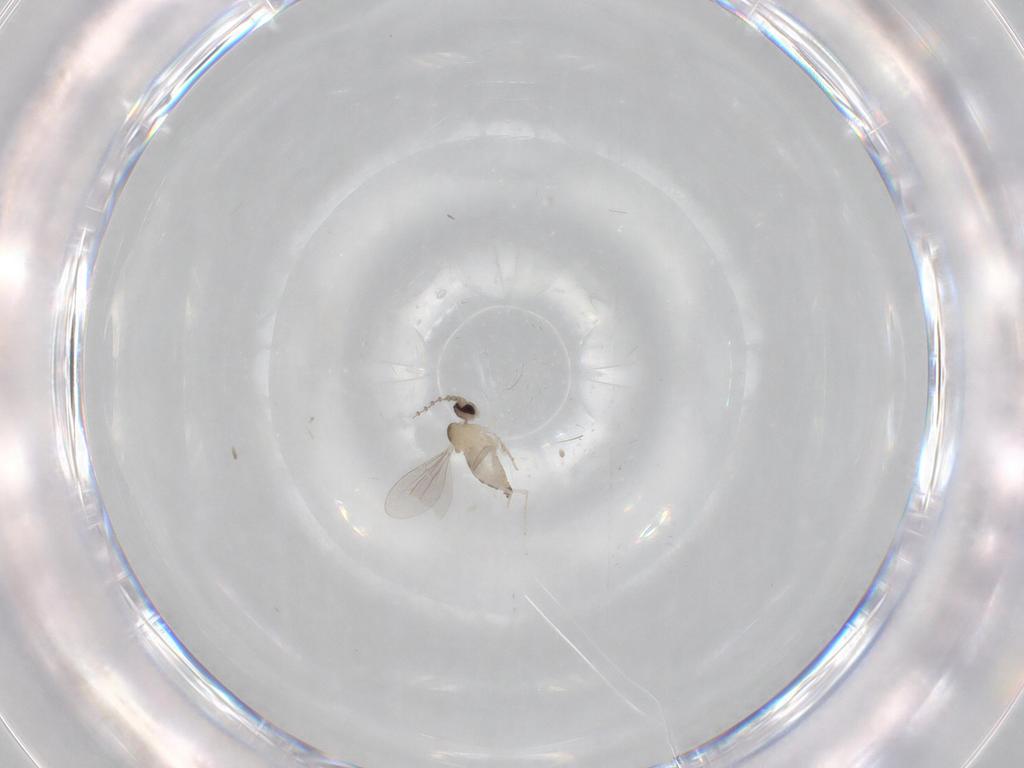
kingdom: Animalia
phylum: Arthropoda
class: Insecta
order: Diptera
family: Cecidomyiidae
